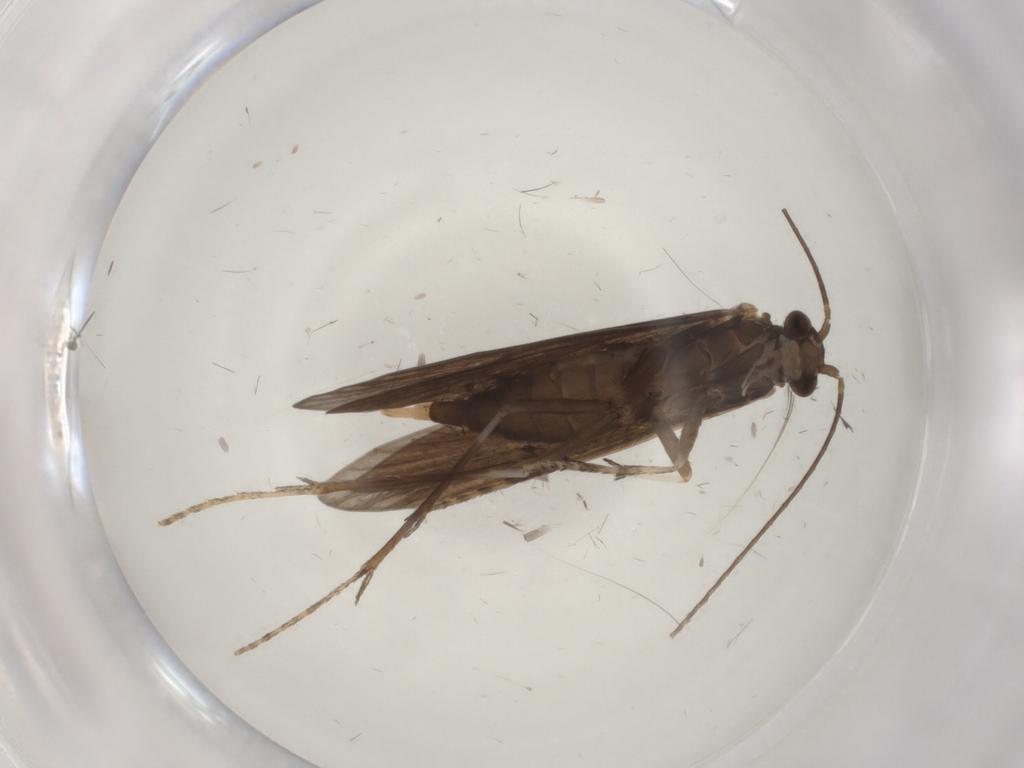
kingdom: Animalia
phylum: Arthropoda
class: Insecta
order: Trichoptera
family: Xiphocentronidae
